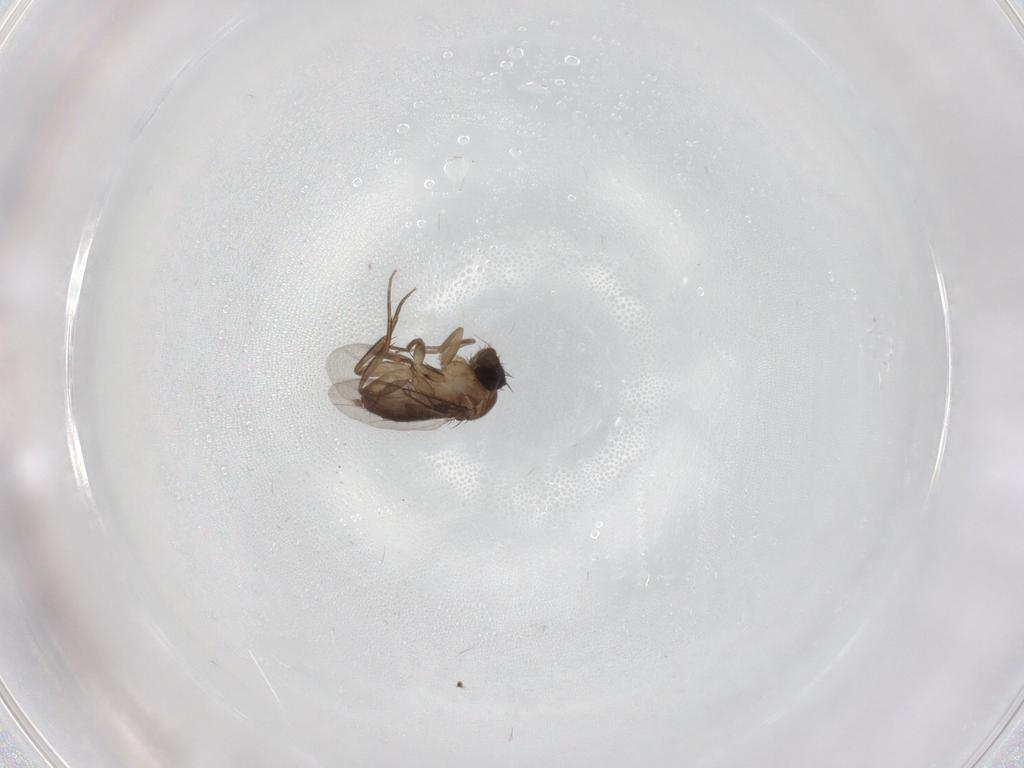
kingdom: Animalia
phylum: Arthropoda
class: Insecta
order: Diptera
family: Phoridae
